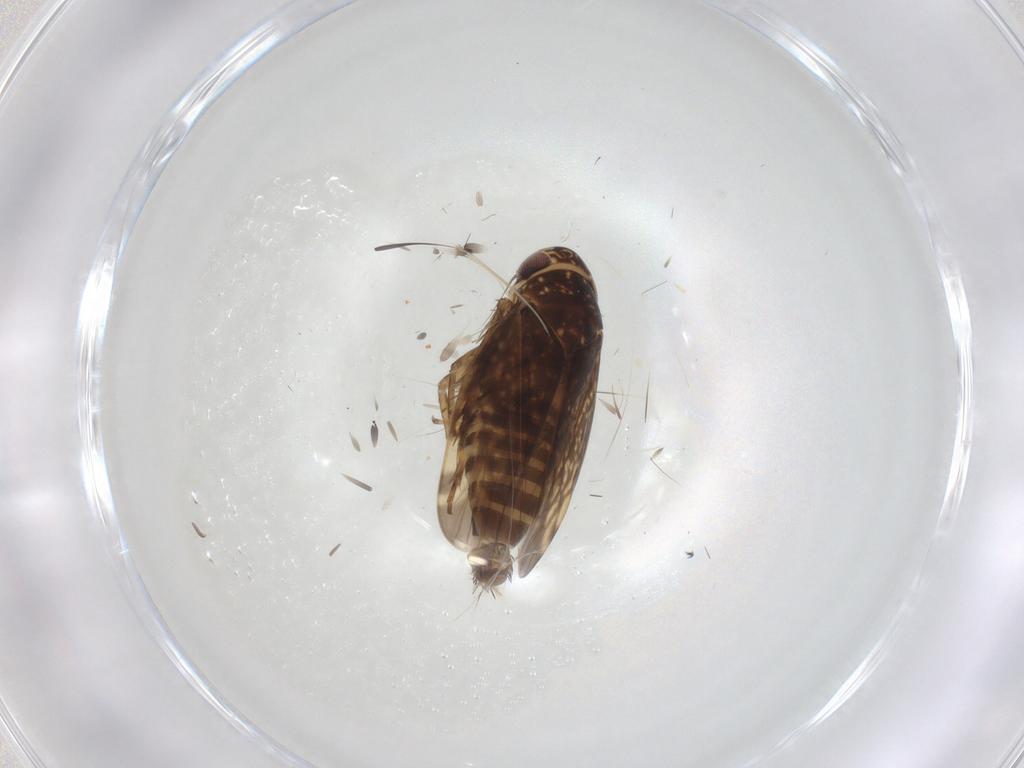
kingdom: Animalia
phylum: Arthropoda
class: Insecta
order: Hemiptera
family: Cicadellidae
